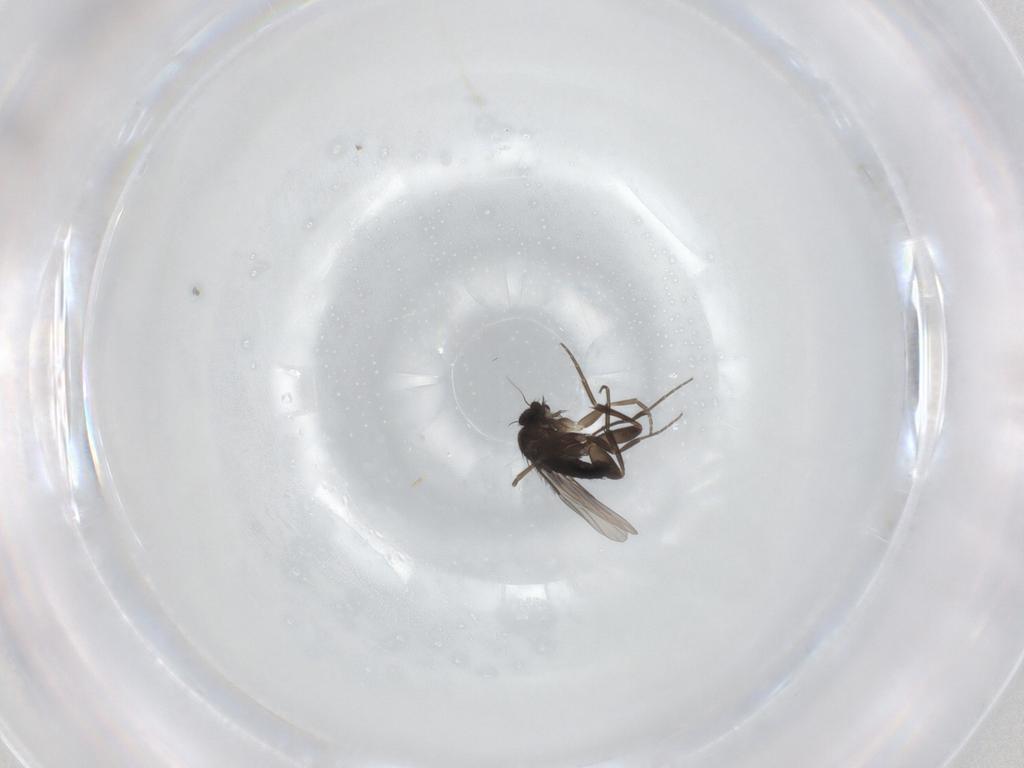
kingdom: Animalia
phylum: Arthropoda
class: Insecta
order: Diptera
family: Phoridae
